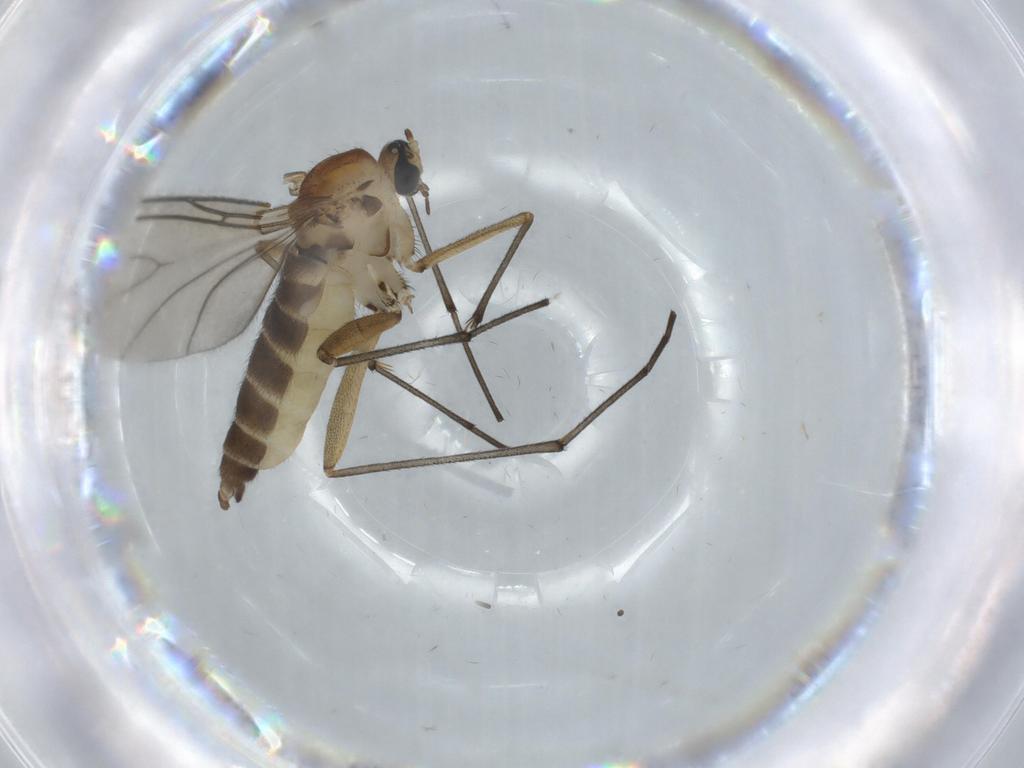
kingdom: Animalia
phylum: Arthropoda
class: Insecta
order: Diptera
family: Sciaridae
